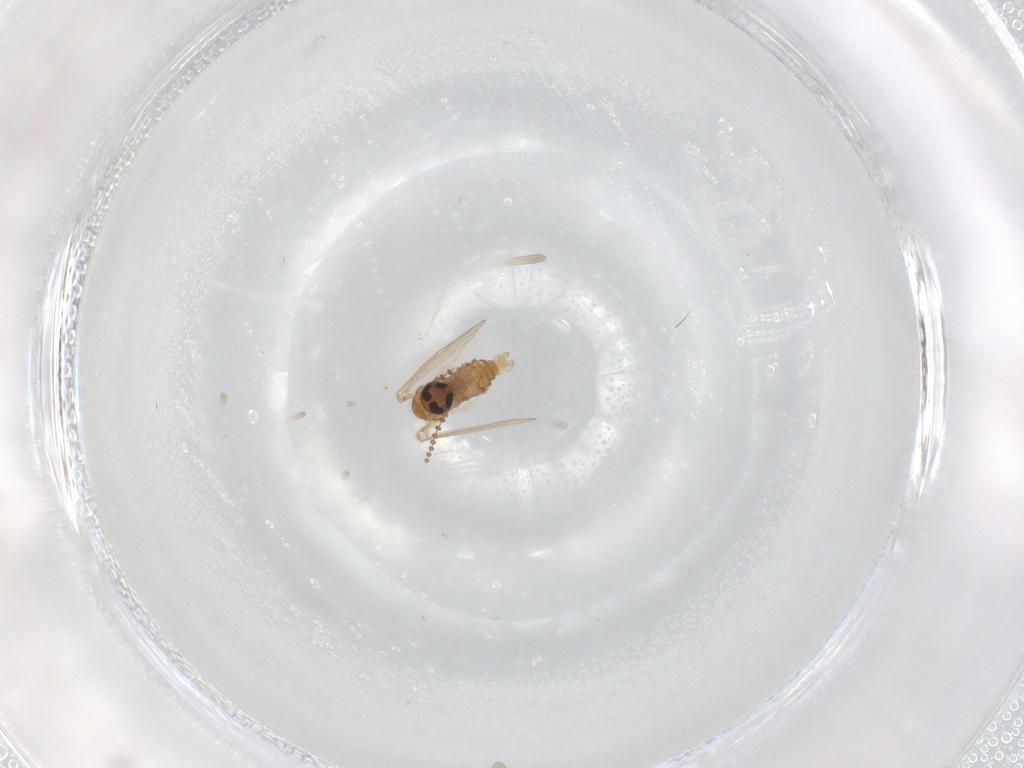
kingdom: Animalia
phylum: Arthropoda
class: Insecta
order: Diptera
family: Psychodidae
